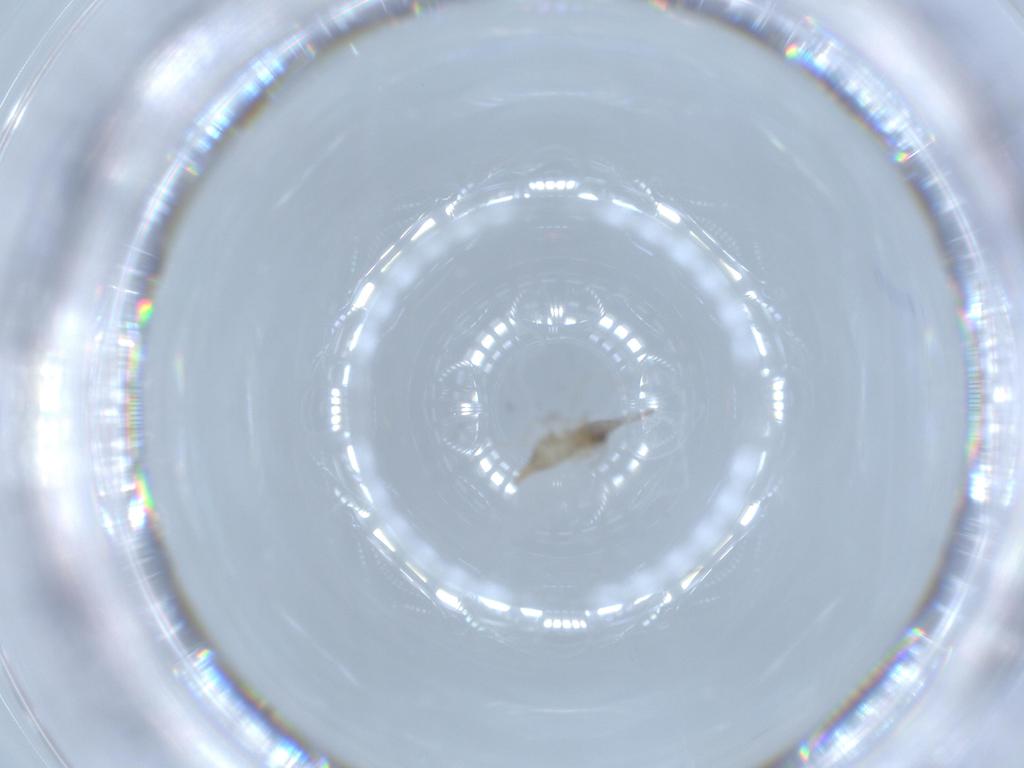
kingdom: Animalia
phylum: Arthropoda
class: Insecta
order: Diptera
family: Cecidomyiidae
